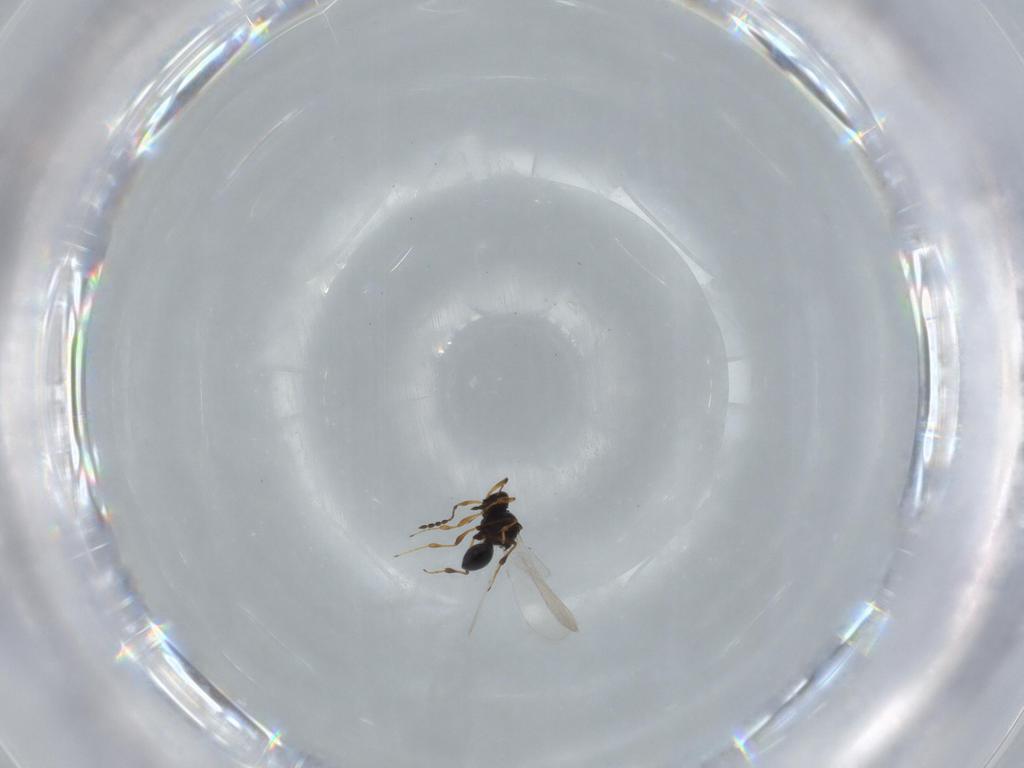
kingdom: Animalia
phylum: Arthropoda
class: Insecta
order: Hymenoptera
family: Platygastridae
